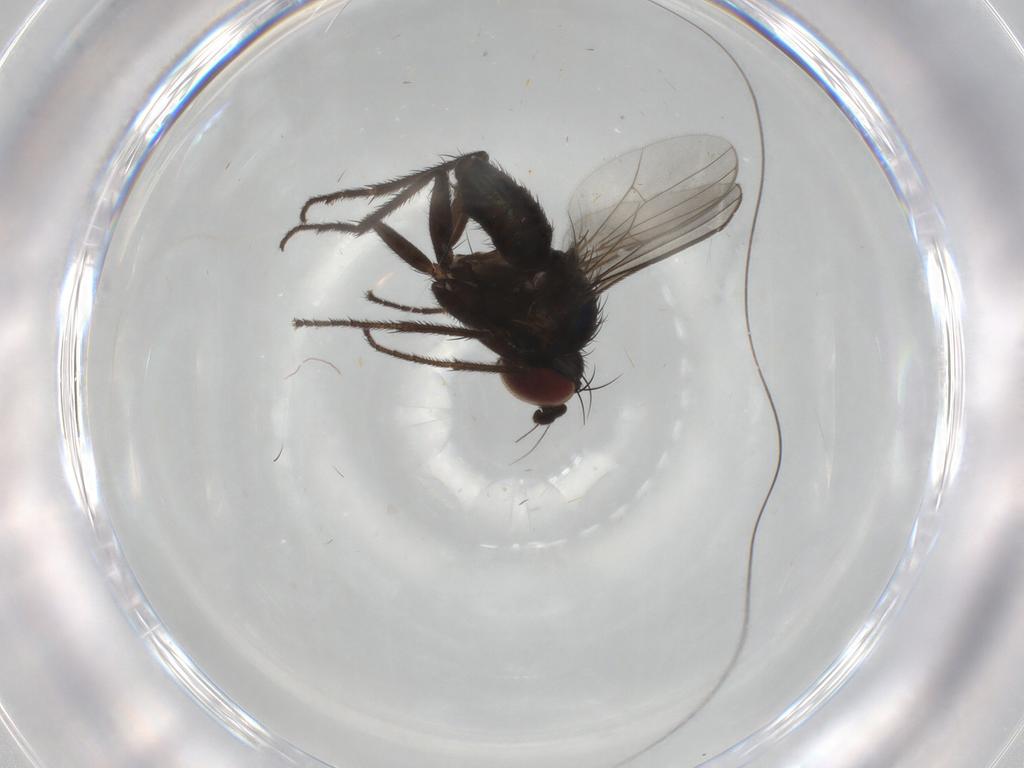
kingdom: Animalia
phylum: Arthropoda
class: Insecta
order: Diptera
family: Dolichopodidae
